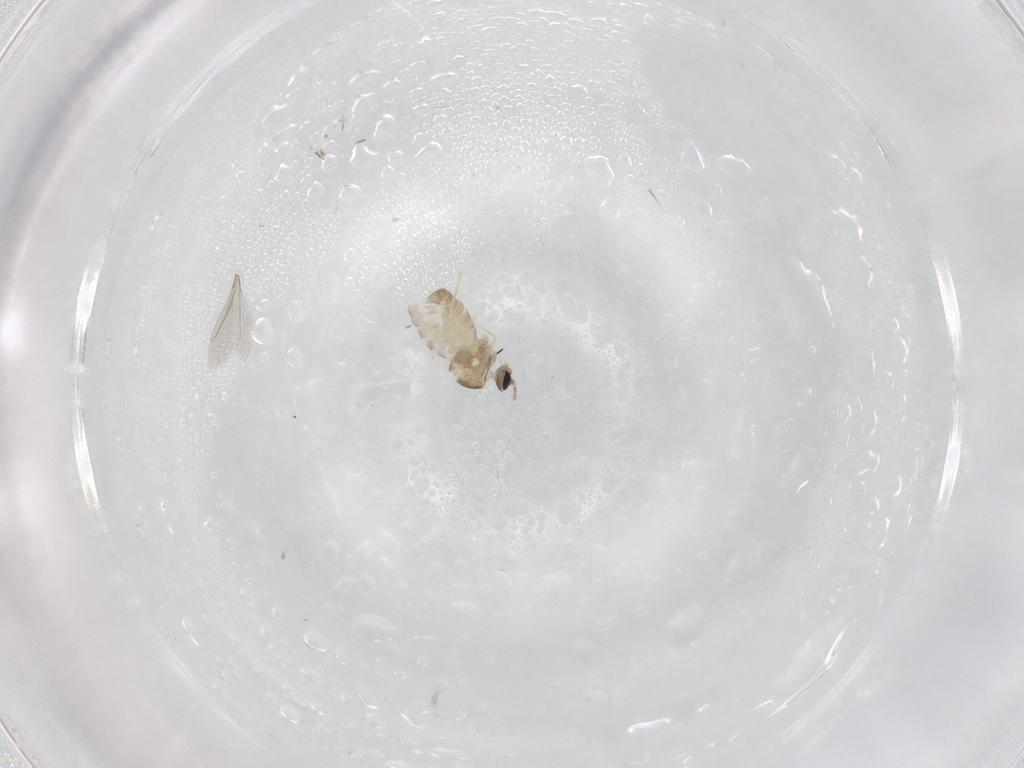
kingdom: Animalia
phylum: Arthropoda
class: Insecta
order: Diptera
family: Cecidomyiidae
